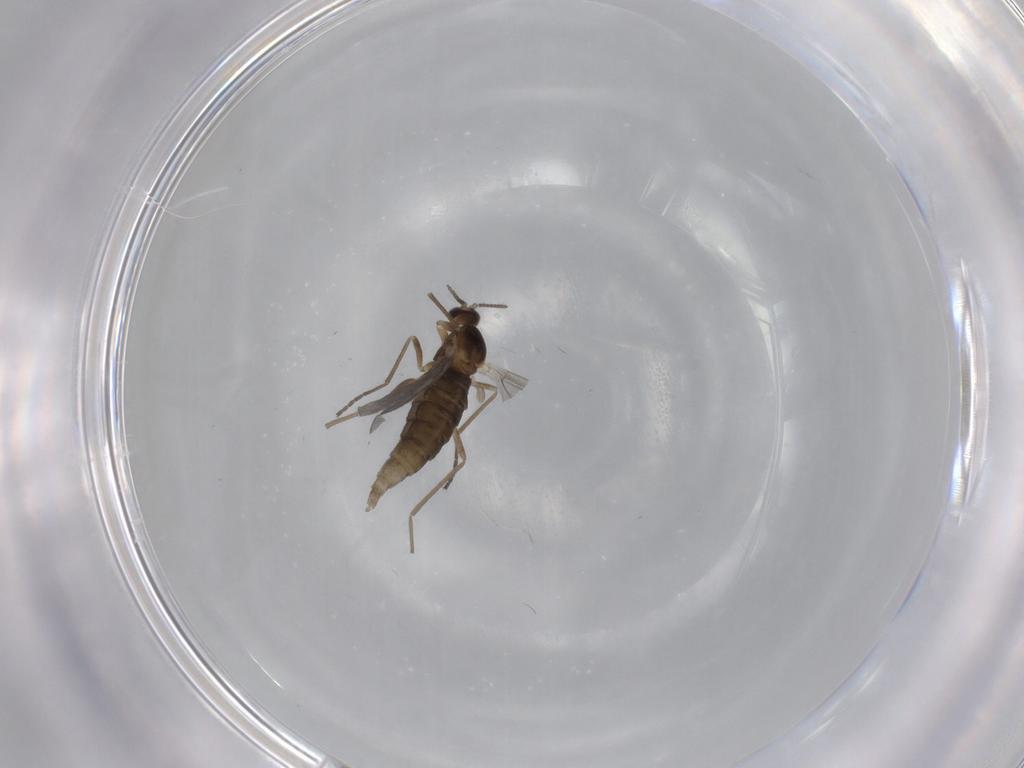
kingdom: Animalia
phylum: Arthropoda
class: Insecta
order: Diptera
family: Cecidomyiidae
